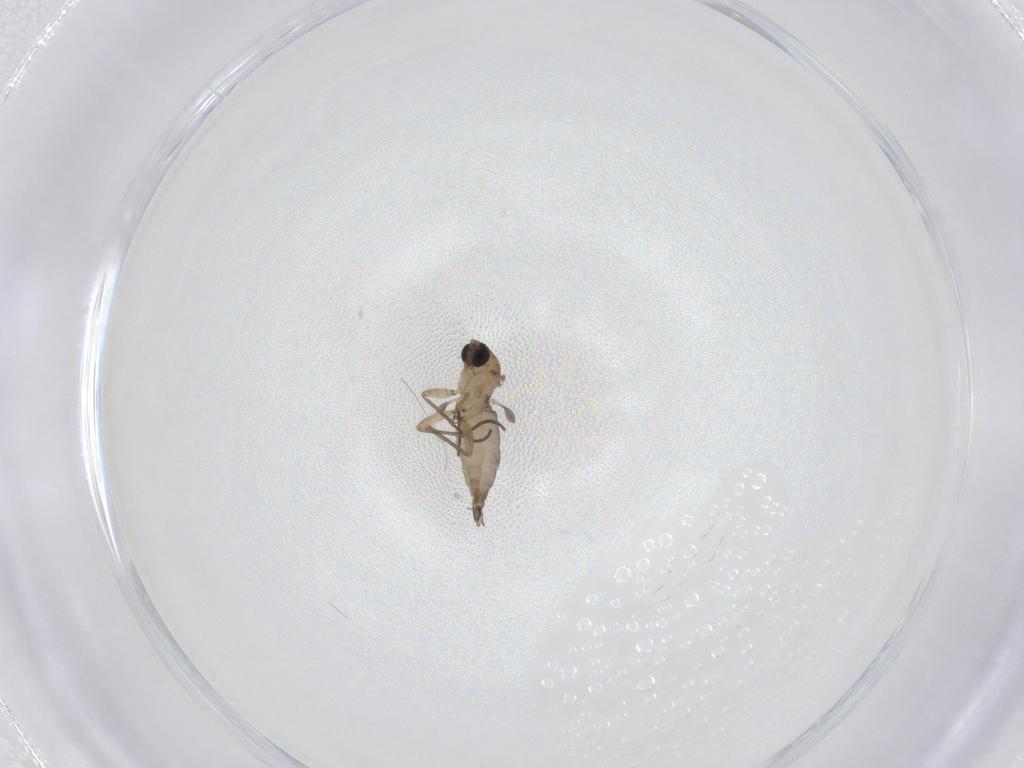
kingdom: Animalia
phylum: Arthropoda
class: Insecta
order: Diptera
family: Sciaridae
